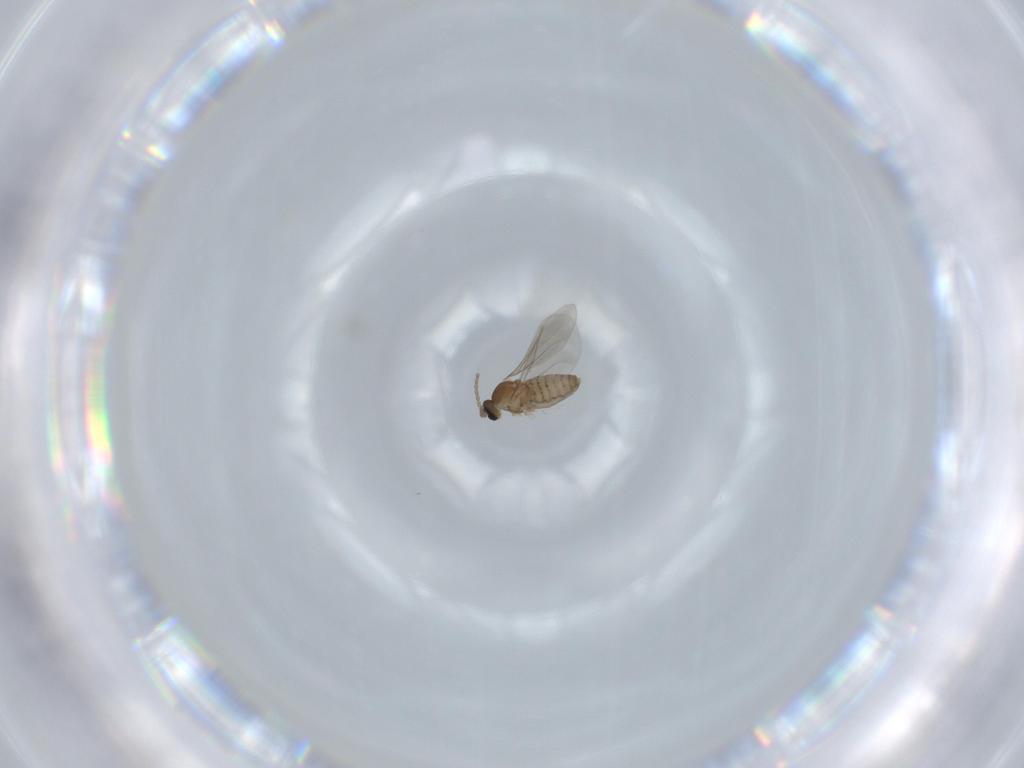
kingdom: Animalia
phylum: Arthropoda
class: Insecta
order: Diptera
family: Cecidomyiidae
